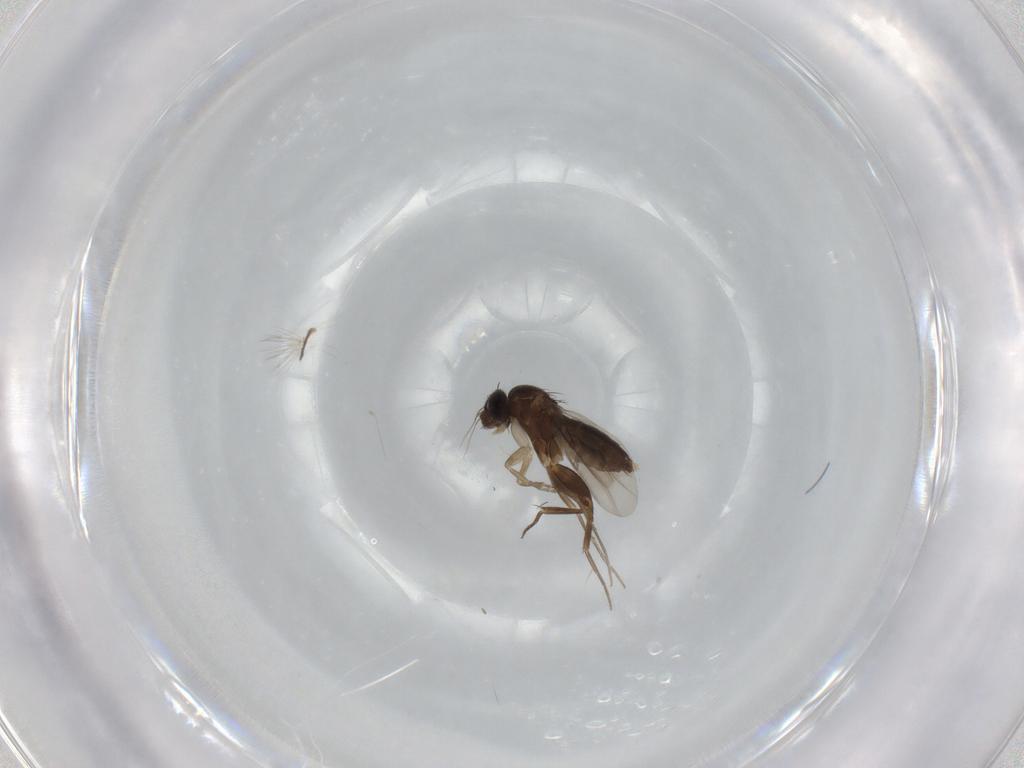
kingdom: Animalia
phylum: Arthropoda
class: Insecta
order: Diptera
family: Phoridae
